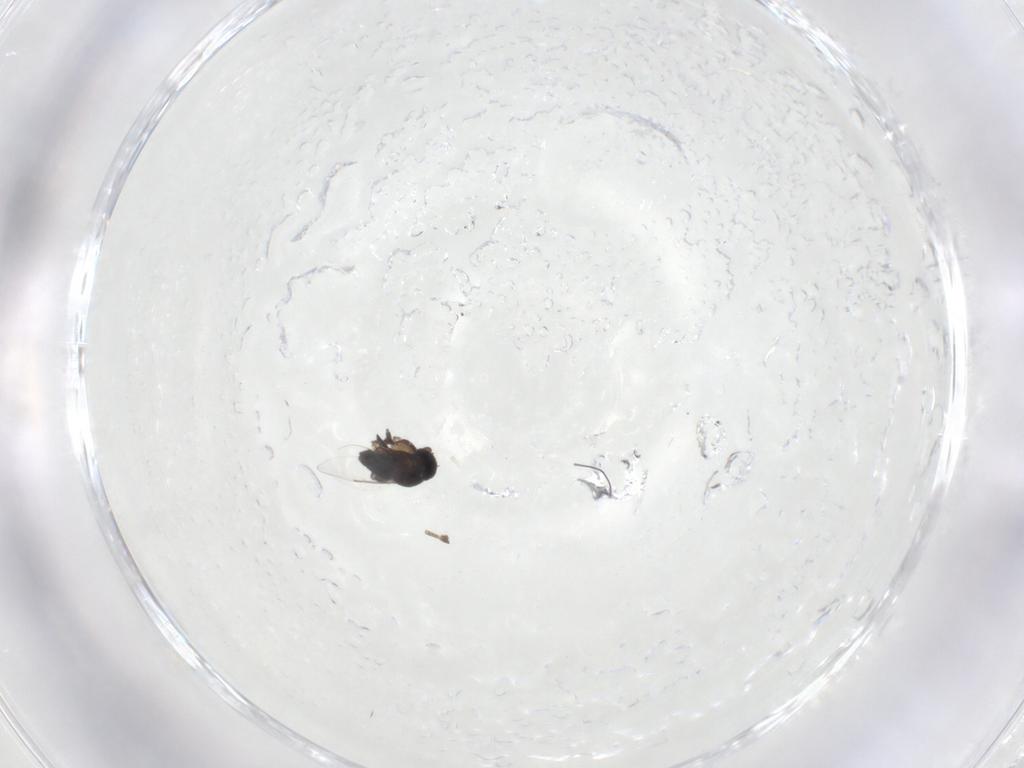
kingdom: Animalia
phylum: Arthropoda
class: Insecta
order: Diptera
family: Phoridae
